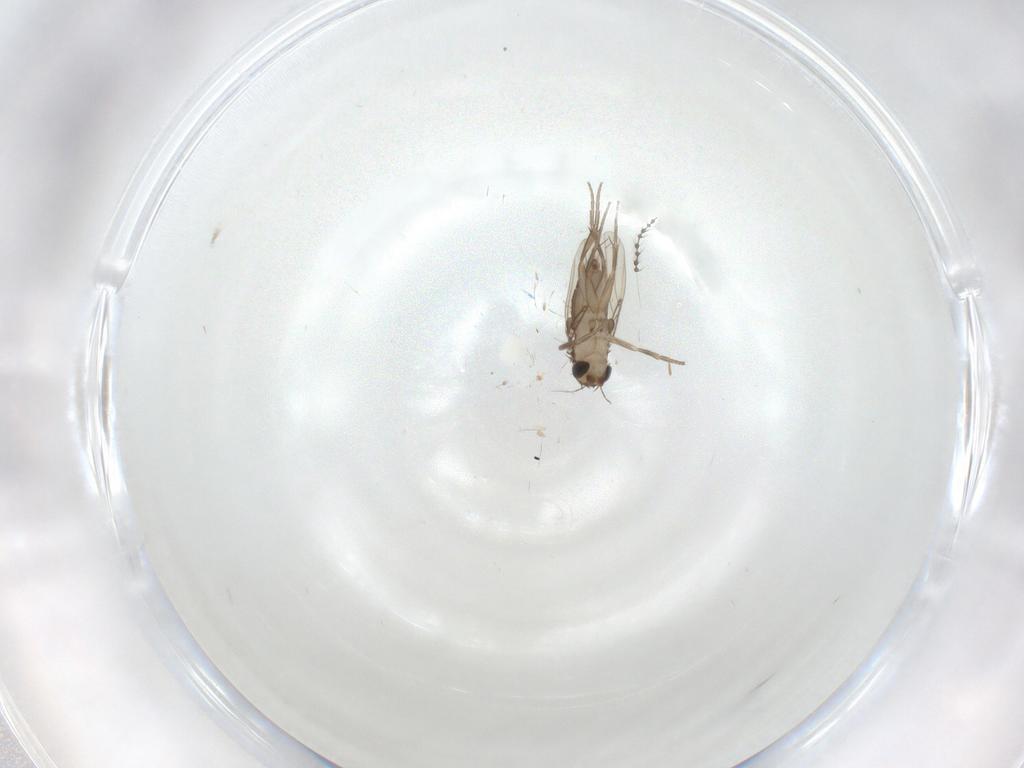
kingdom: Animalia
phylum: Arthropoda
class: Insecta
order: Diptera
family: Phoridae
